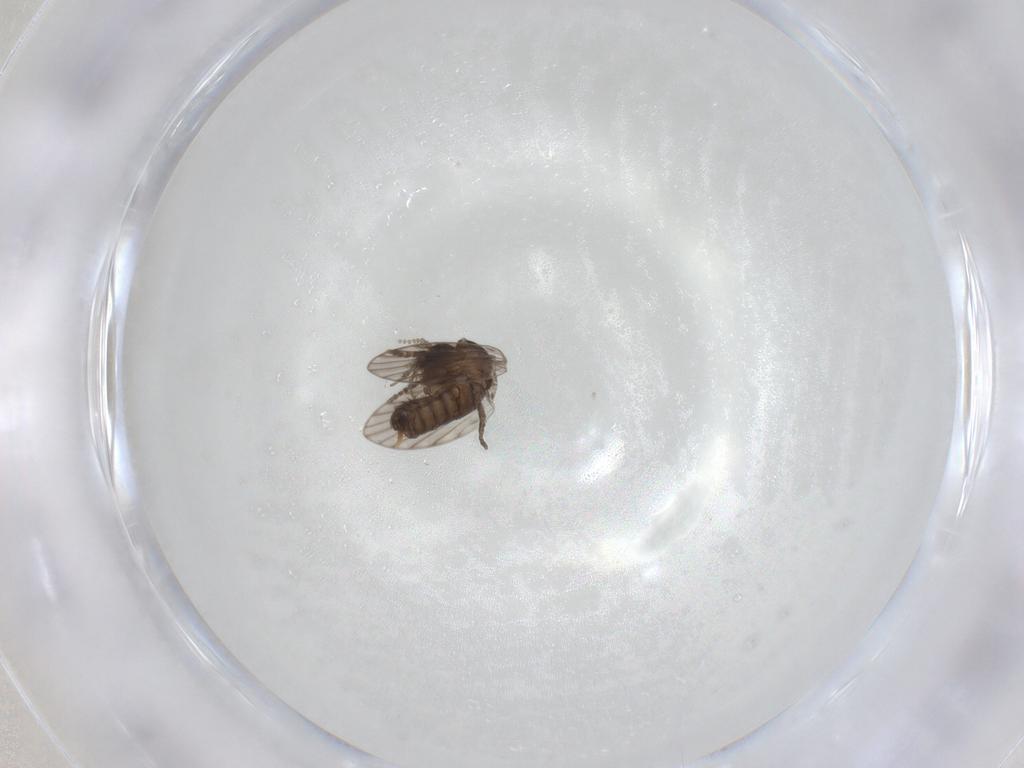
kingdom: Animalia
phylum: Arthropoda
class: Insecta
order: Diptera
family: Psychodidae
